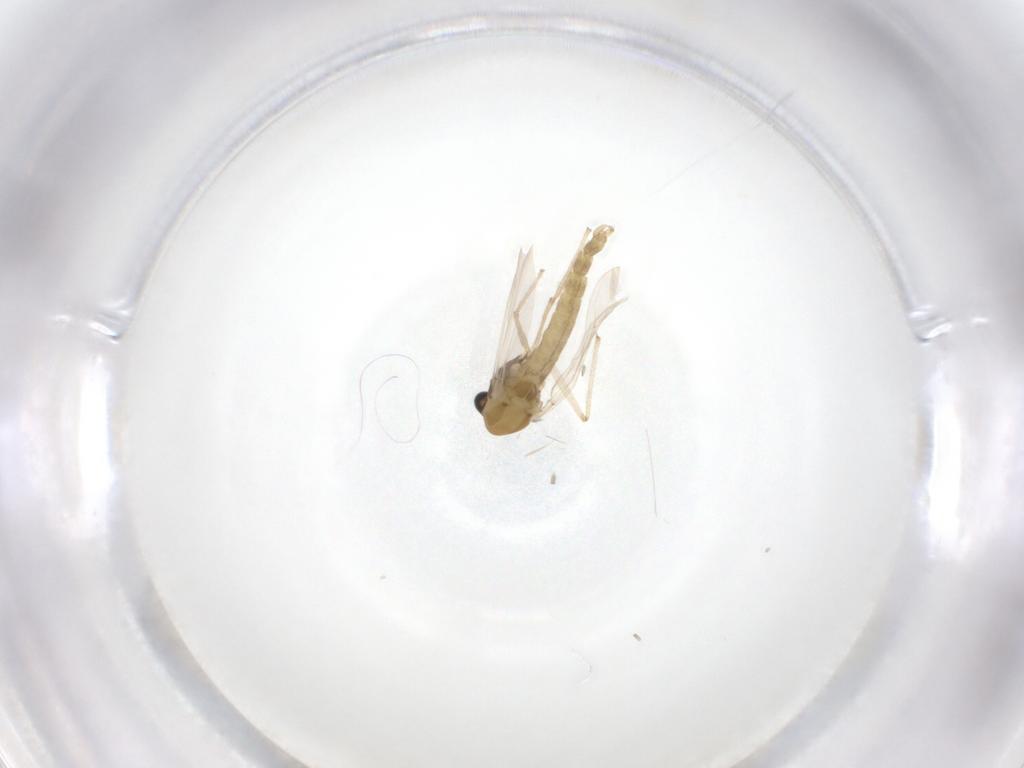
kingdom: Animalia
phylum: Arthropoda
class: Insecta
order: Diptera
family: Chironomidae
